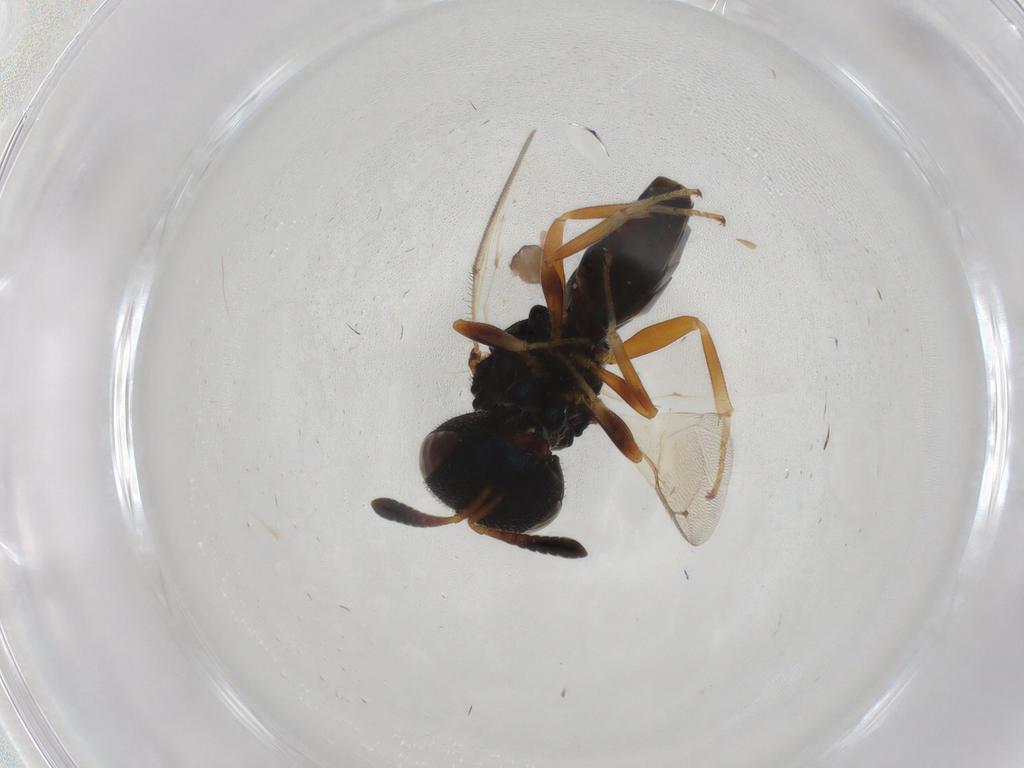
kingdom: Animalia
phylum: Arthropoda
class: Insecta
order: Hymenoptera
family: Agaonidae
